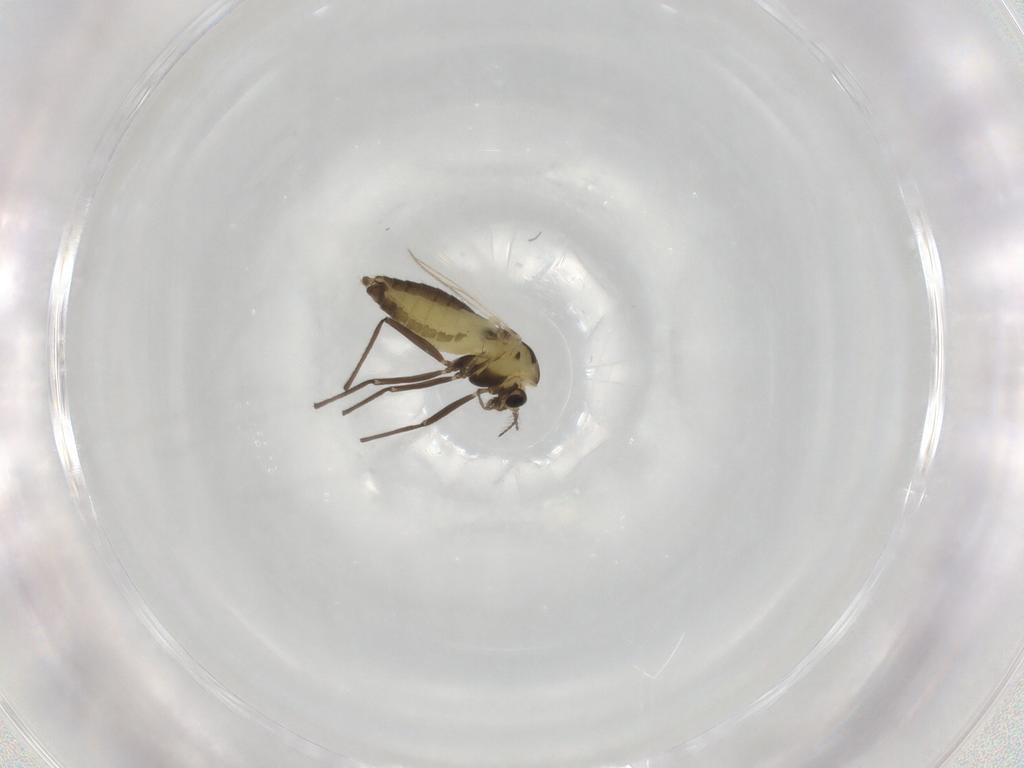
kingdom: Animalia
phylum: Arthropoda
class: Insecta
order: Diptera
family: Chironomidae
